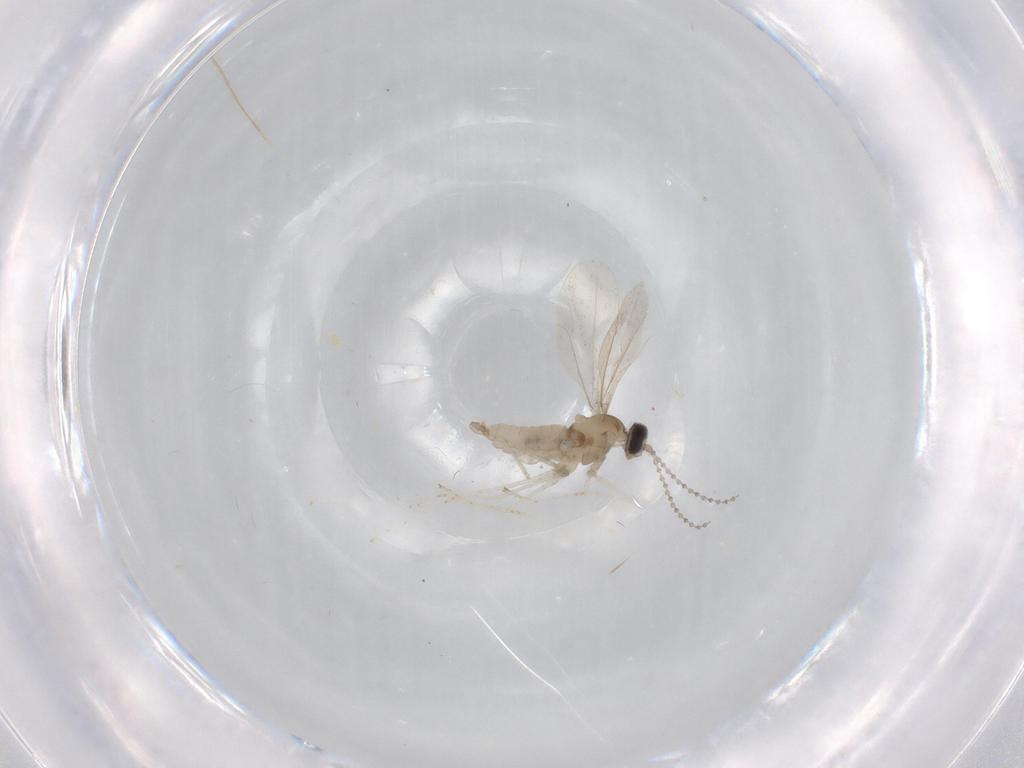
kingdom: Animalia
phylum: Arthropoda
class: Insecta
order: Diptera
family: Cecidomyiidae
